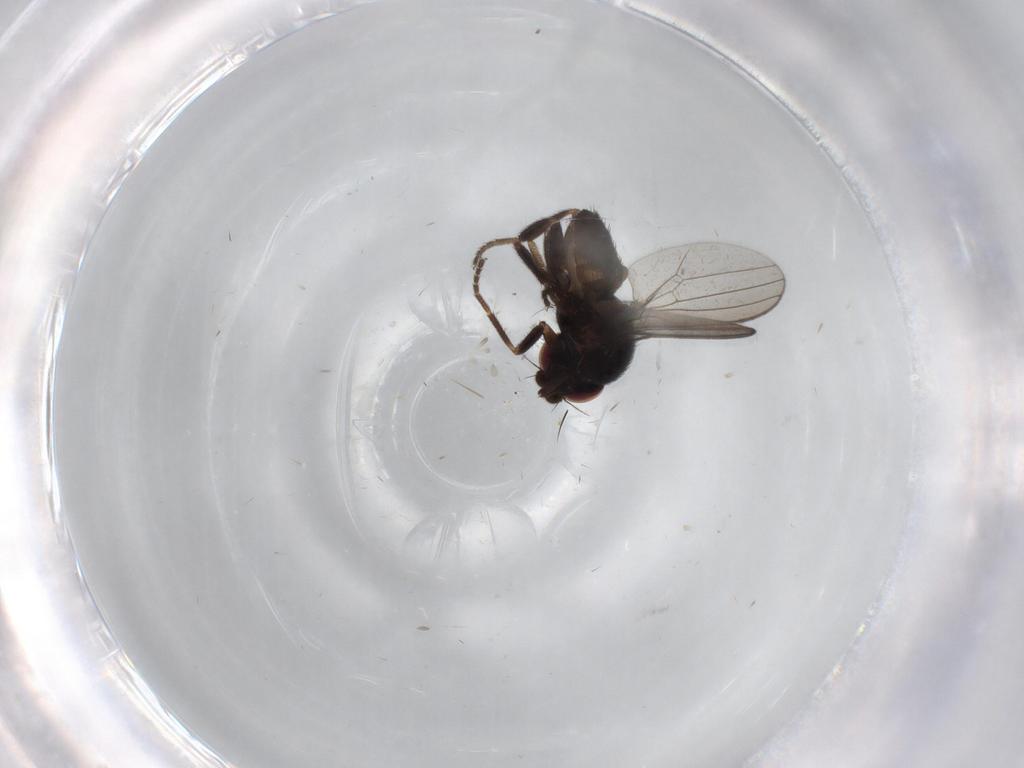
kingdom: Animalia
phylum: Arthropoda
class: Insecta
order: Diptera
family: Milichiidae
